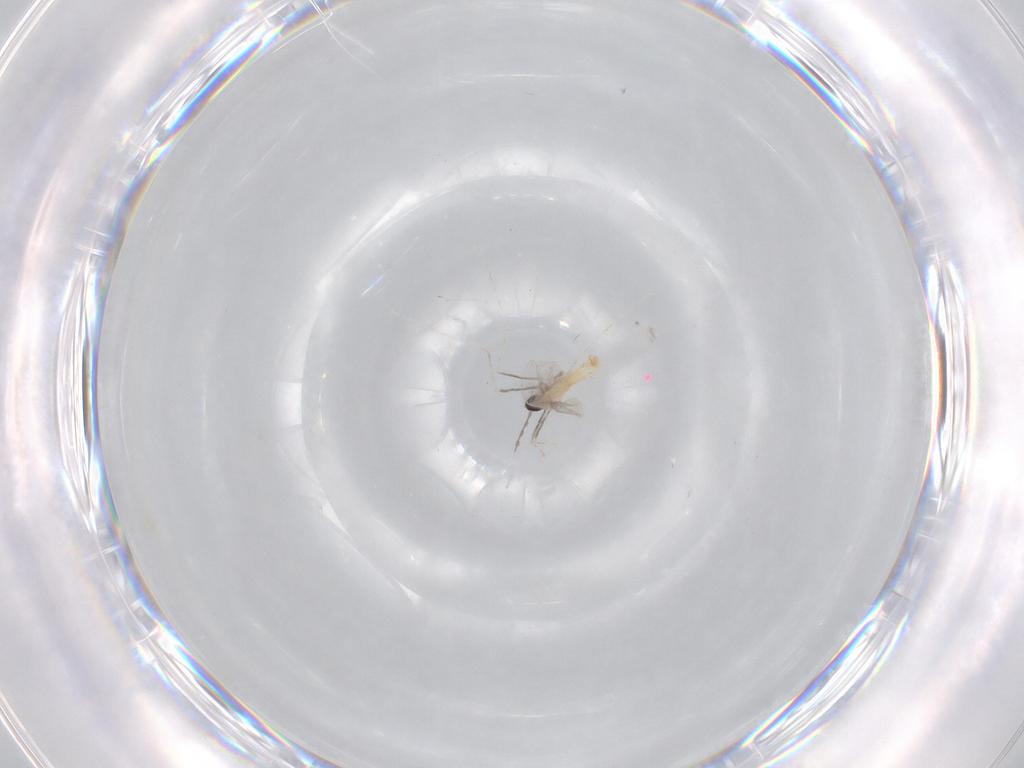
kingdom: Animalia
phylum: Arthropoda
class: Insecta
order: Diptera
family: Cecidomyiidae
